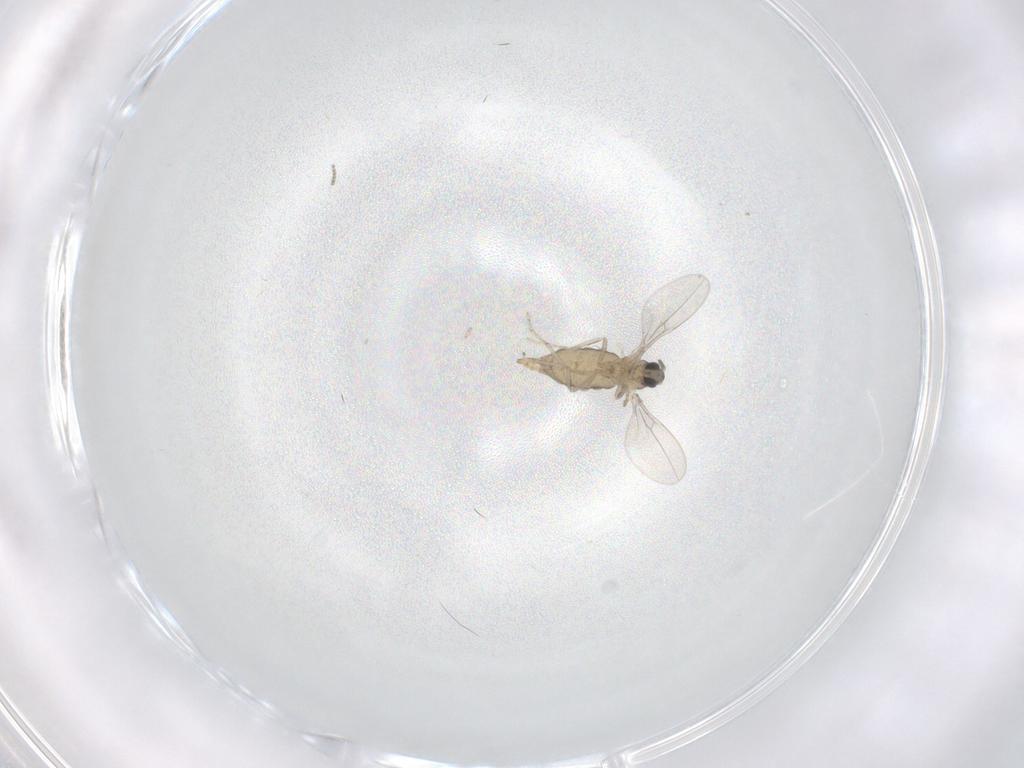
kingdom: Animalia
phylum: Arthropoda
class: Insecta
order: Diptera
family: Cecidomyiidae
